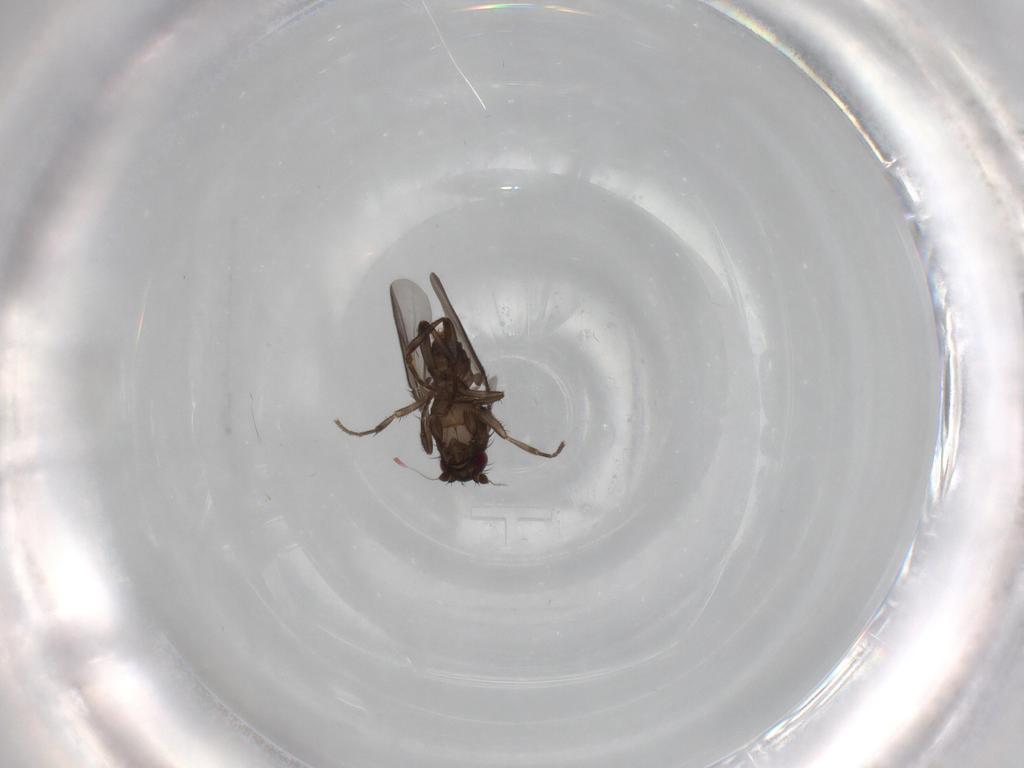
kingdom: Animalia
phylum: Arthropoda
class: Insecta
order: Diptera
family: Sphaeroceridae
